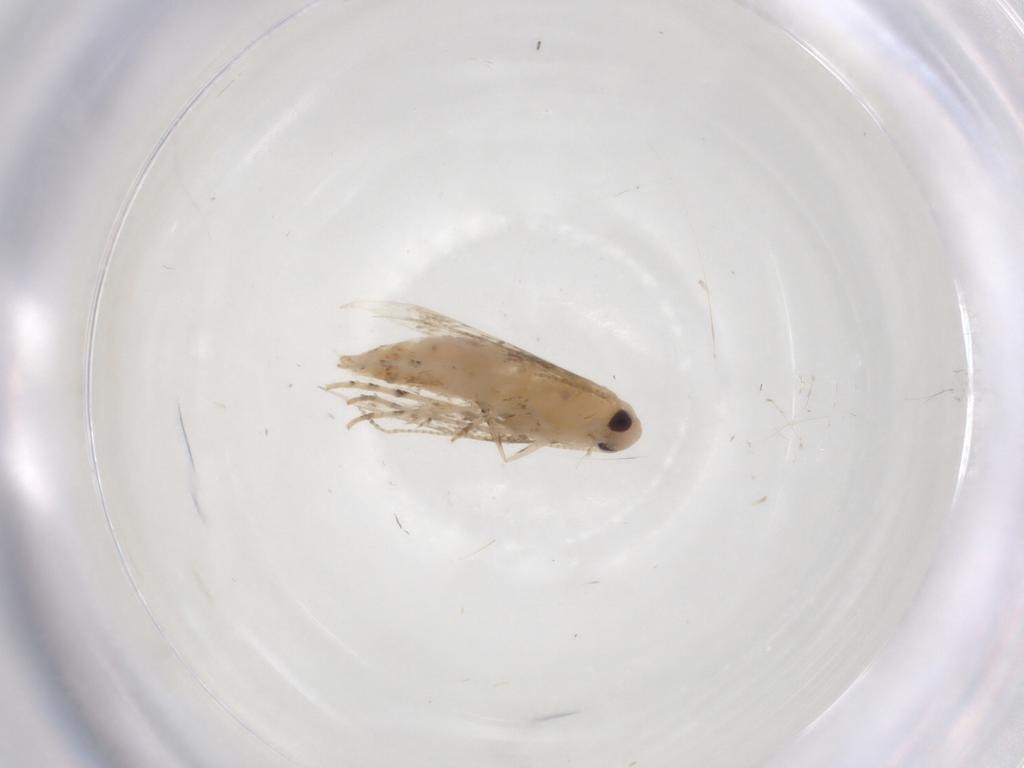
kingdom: Animalia
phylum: Arthropoda
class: Insecta
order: Lepidoptera
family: Gracillariidae
